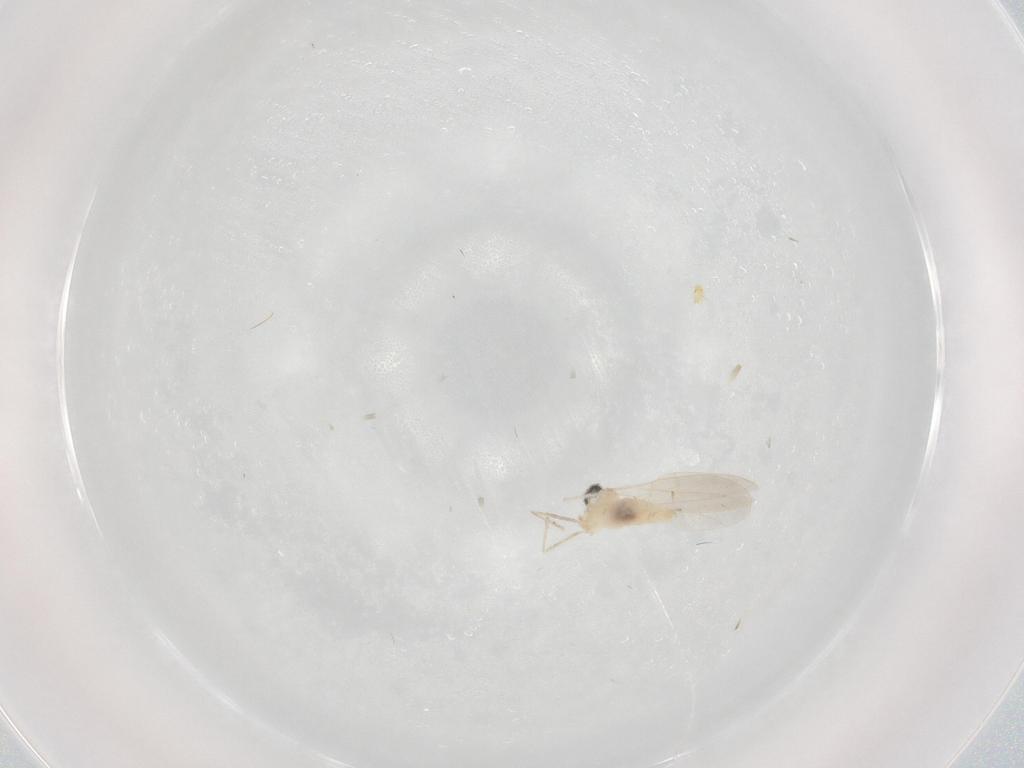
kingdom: Animalia
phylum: Arthropoda
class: Insecta
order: Diptera
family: Cecidomyiidae
